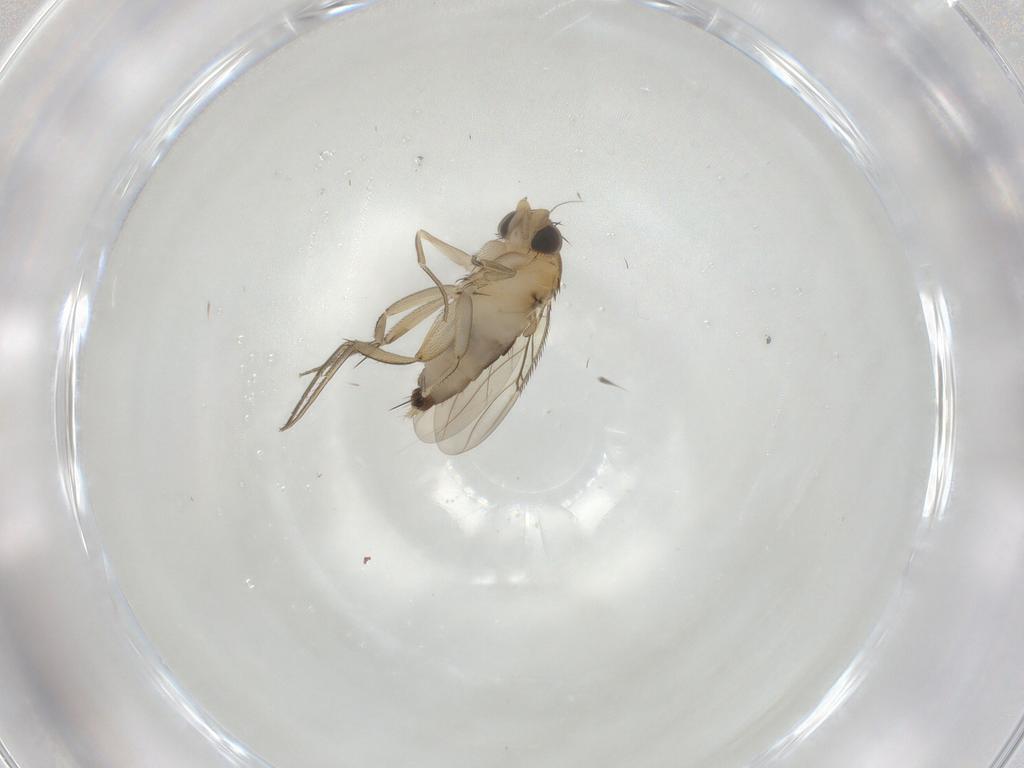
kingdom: Animalia
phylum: Arthropoda
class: Insecta
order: Diptera
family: Phoridae
